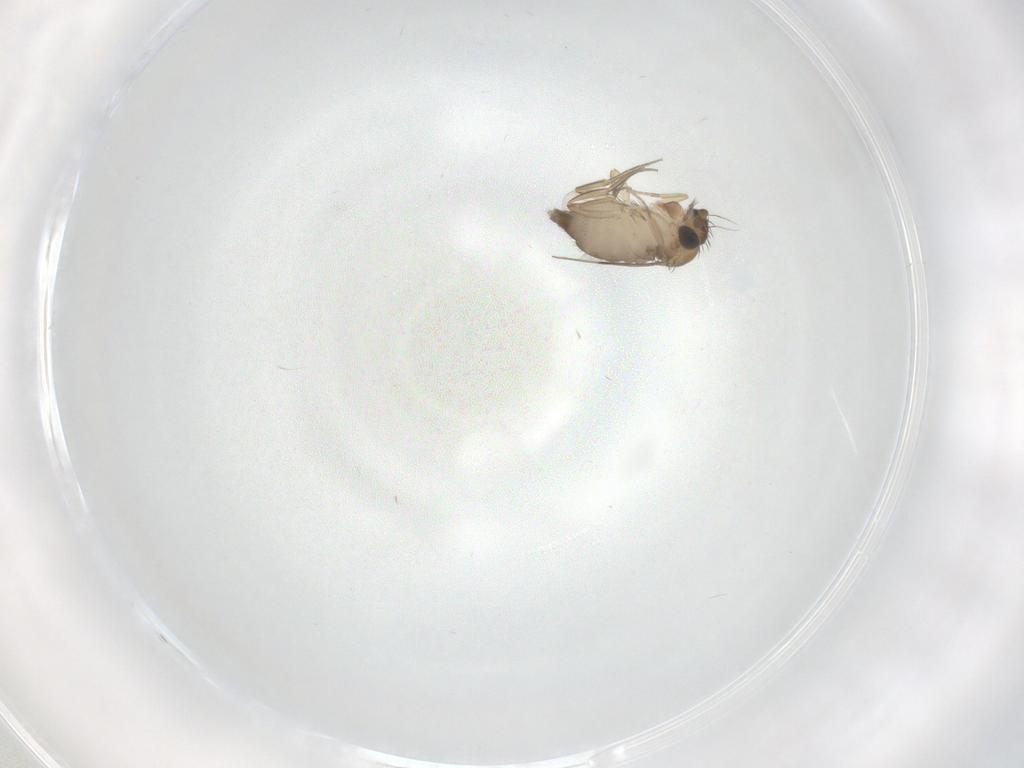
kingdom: Animalia
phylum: Arthropoda
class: Insecta
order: Diptera
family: Phoridae
